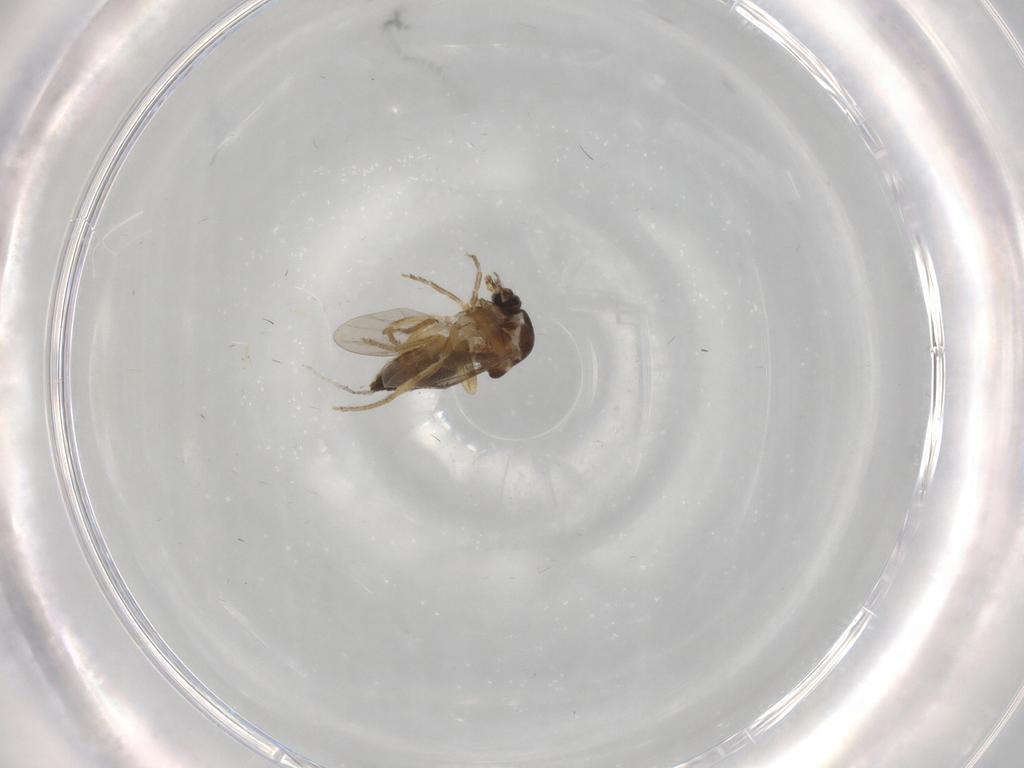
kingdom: Animalia
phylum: Arthropoda
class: Insecta
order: Diptera
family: Ceratopogonidae
